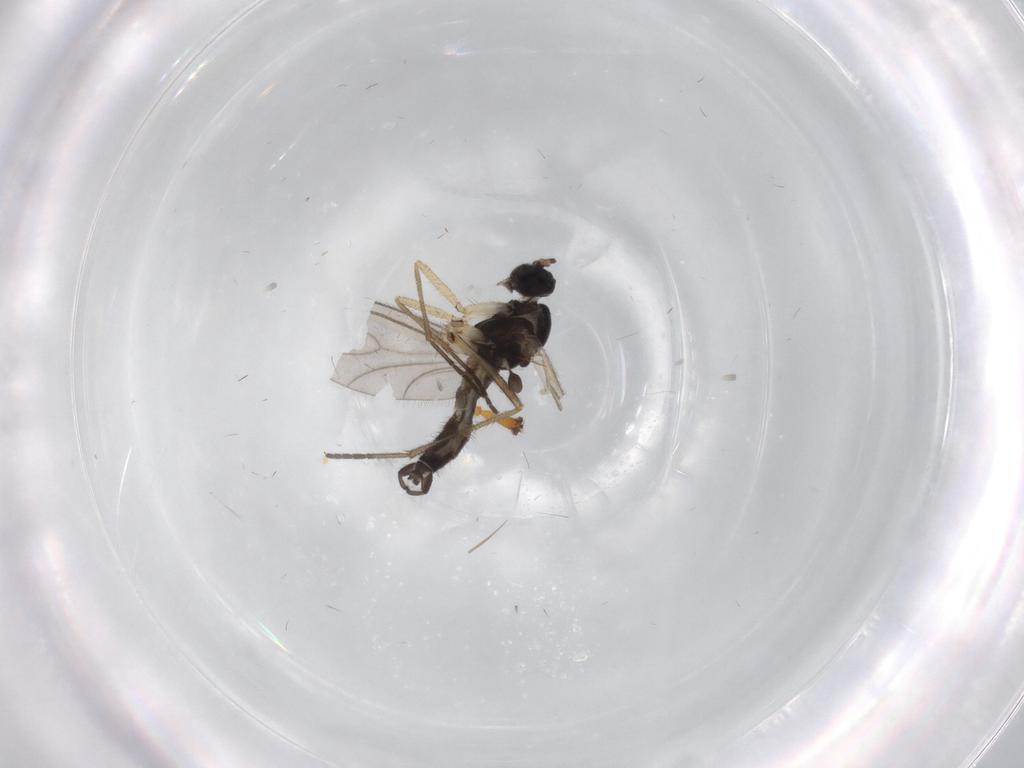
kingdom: Animalia
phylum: Arthropoda
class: Insecta
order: Diptera
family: Sciaridae
